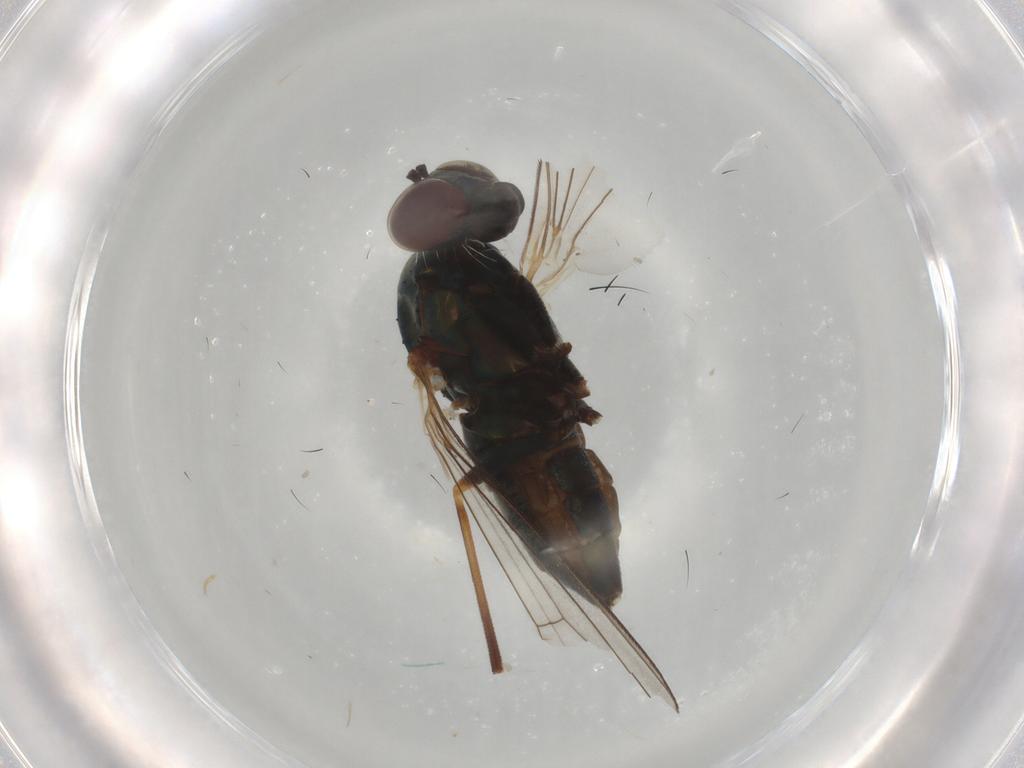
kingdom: Animalia
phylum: Arthropoda
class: Insecta
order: Diptera
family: Dolichopodidae
